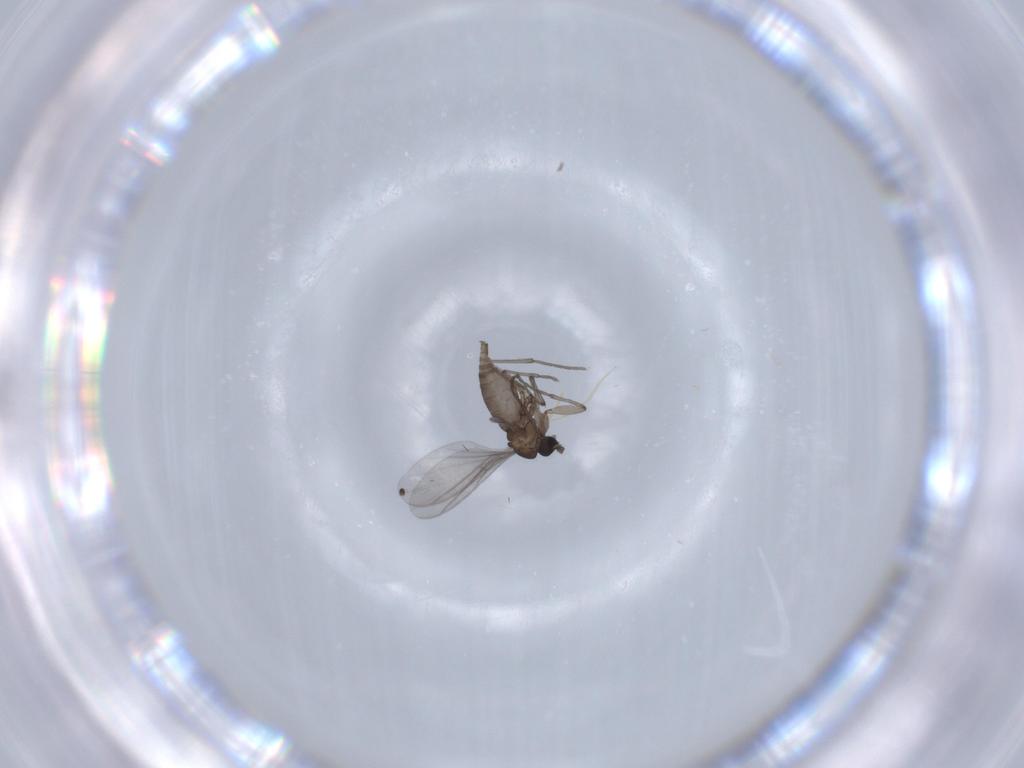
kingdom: Animalia
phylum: Arthropoda
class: Insecta
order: Diptera
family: Sciaridae
